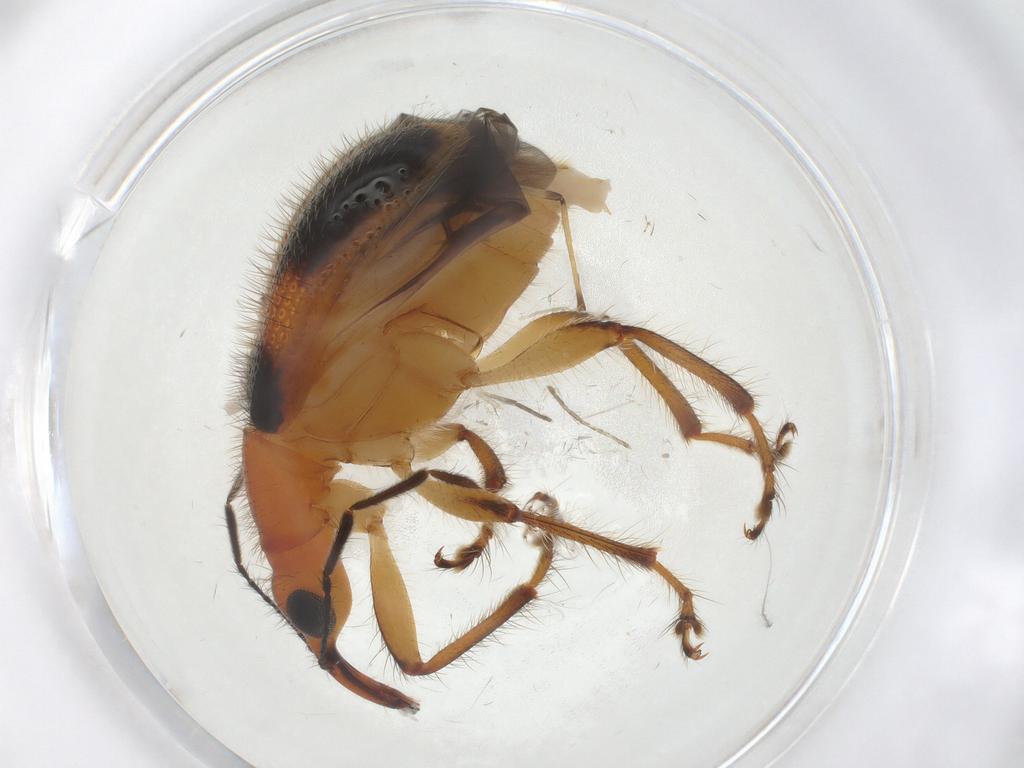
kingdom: Animalia
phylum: Arthropoda
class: Insecta
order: Coleoptera
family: Attelabidae
